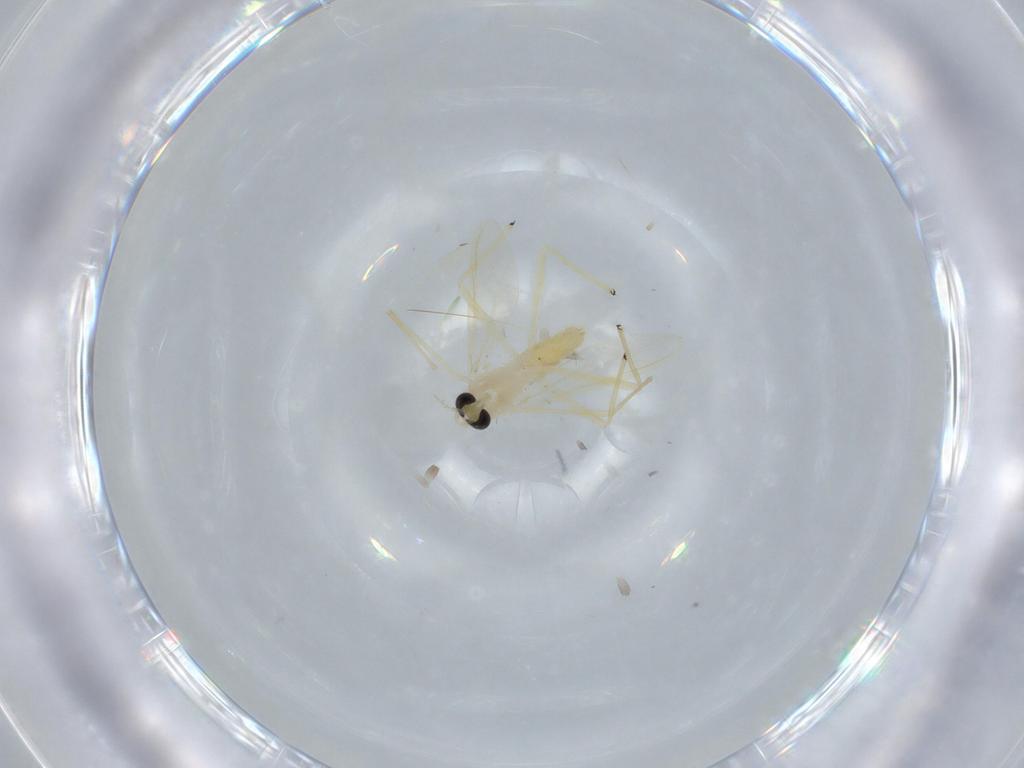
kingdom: Animalia
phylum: Arthropoda
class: Insecta
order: Diptera
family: Chironomidae
